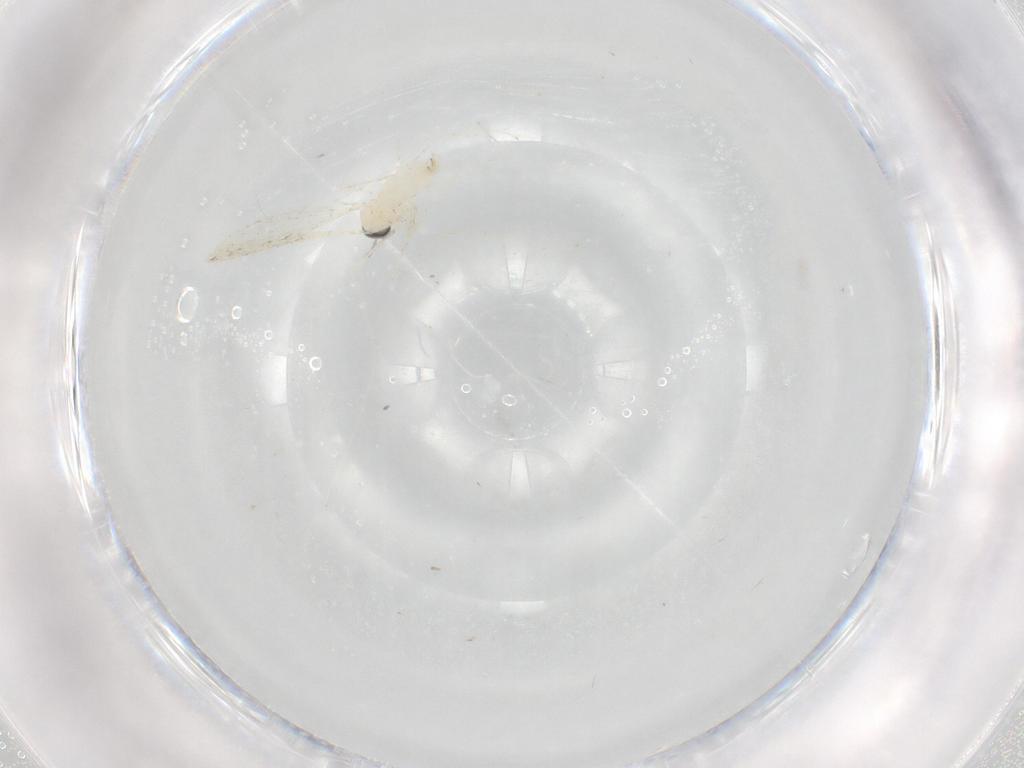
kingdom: Animalia
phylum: Arthropoda
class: Insecta
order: Diptera
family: Cecidomyiidae
